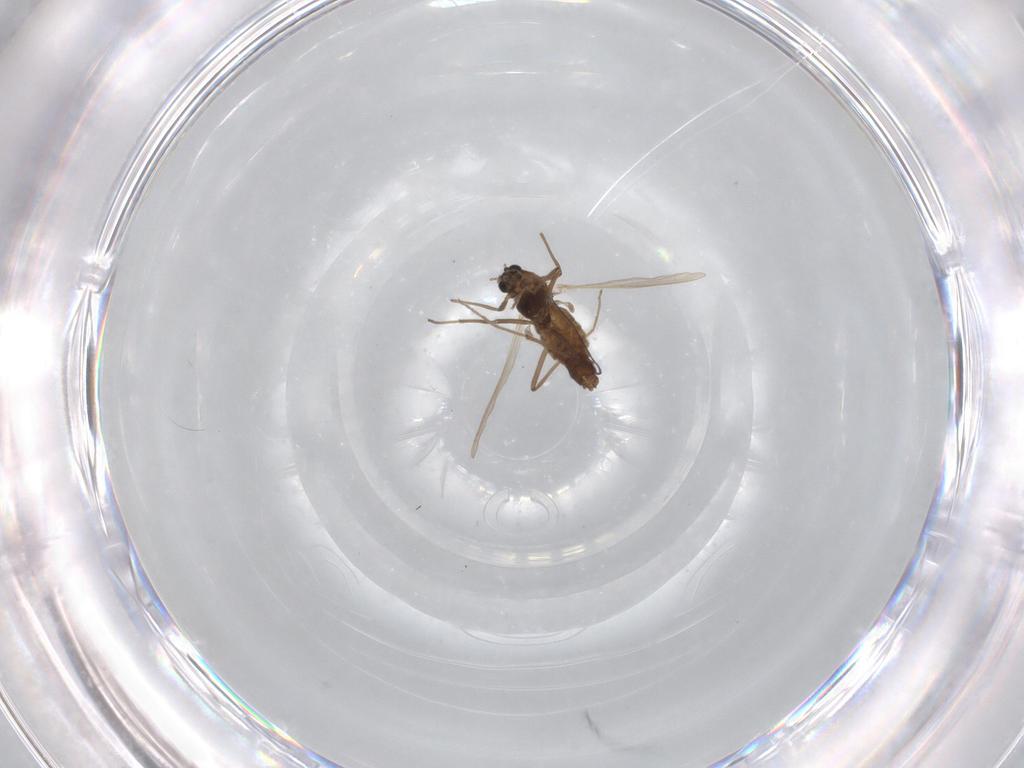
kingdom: Animalia
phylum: Arthropoda
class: Insecta
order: Diptera
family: Chironomidae
